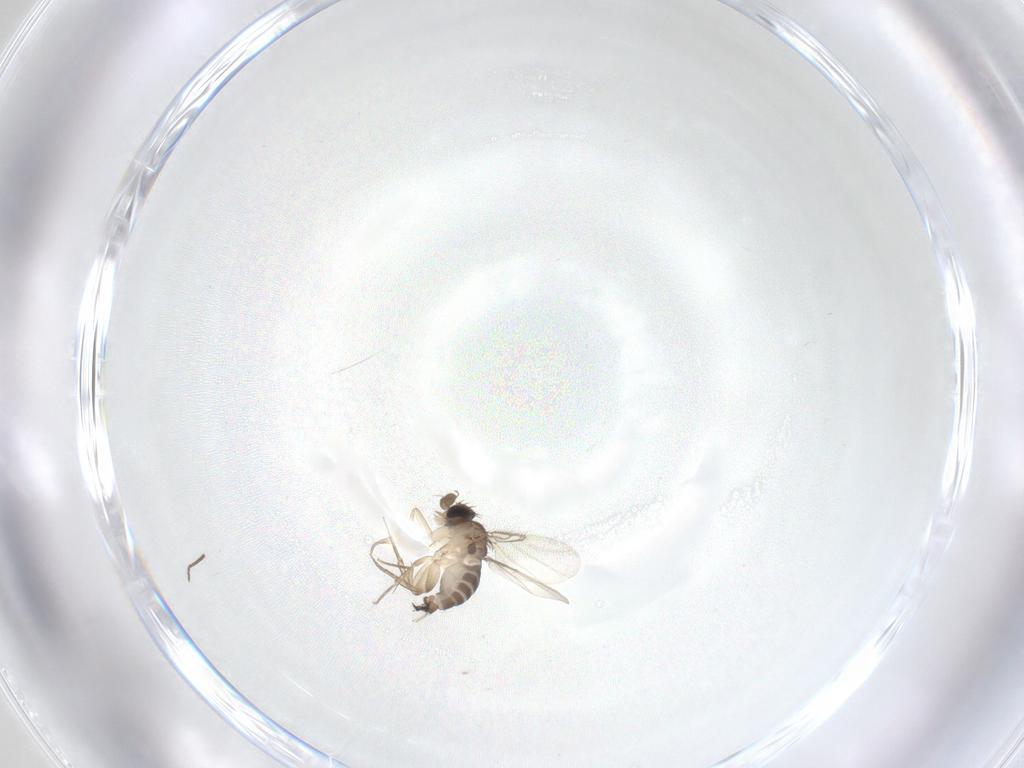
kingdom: Animalia
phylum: Arthropoda
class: Insecta
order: Diptera
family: Phoridae
